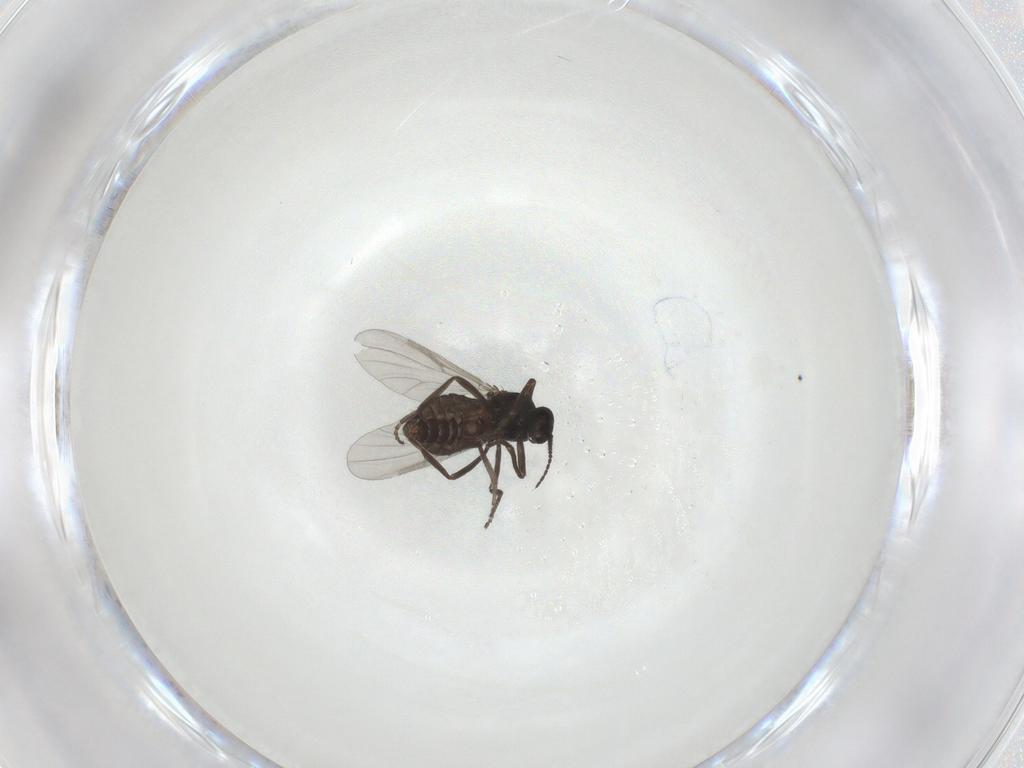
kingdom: Animalia
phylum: Arthropoda
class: Insecta
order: Diptera
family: Ceratopogonidae
